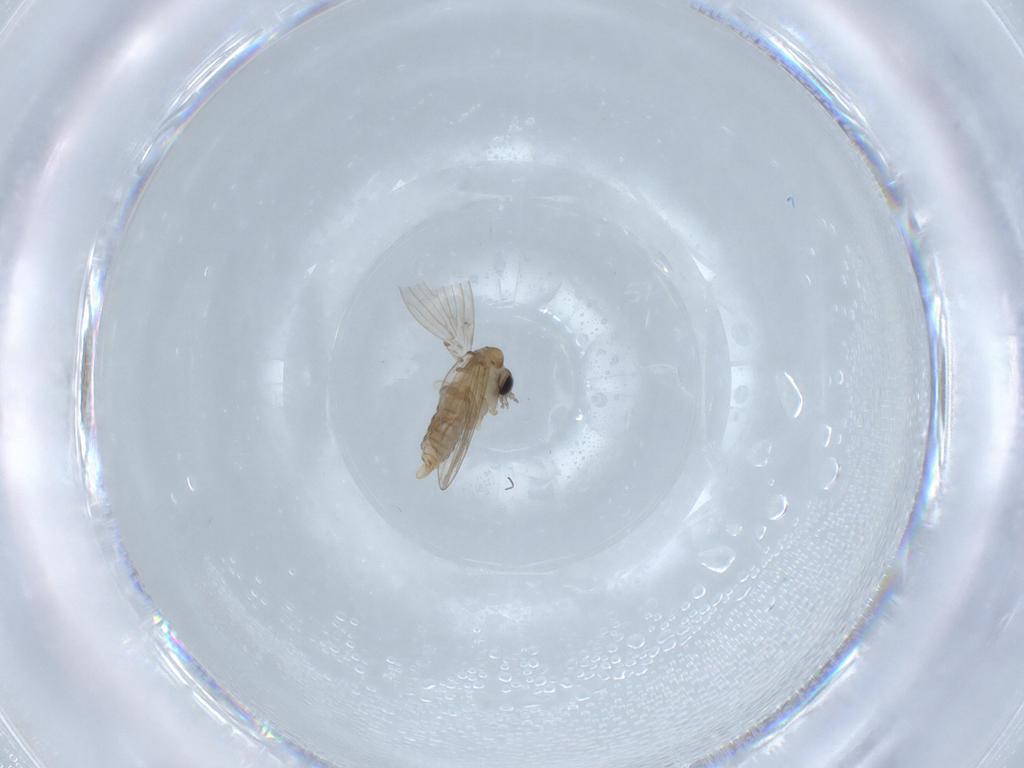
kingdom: Animalia
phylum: Arthropoda
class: Insecta
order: Diptera
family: Psychodidae
